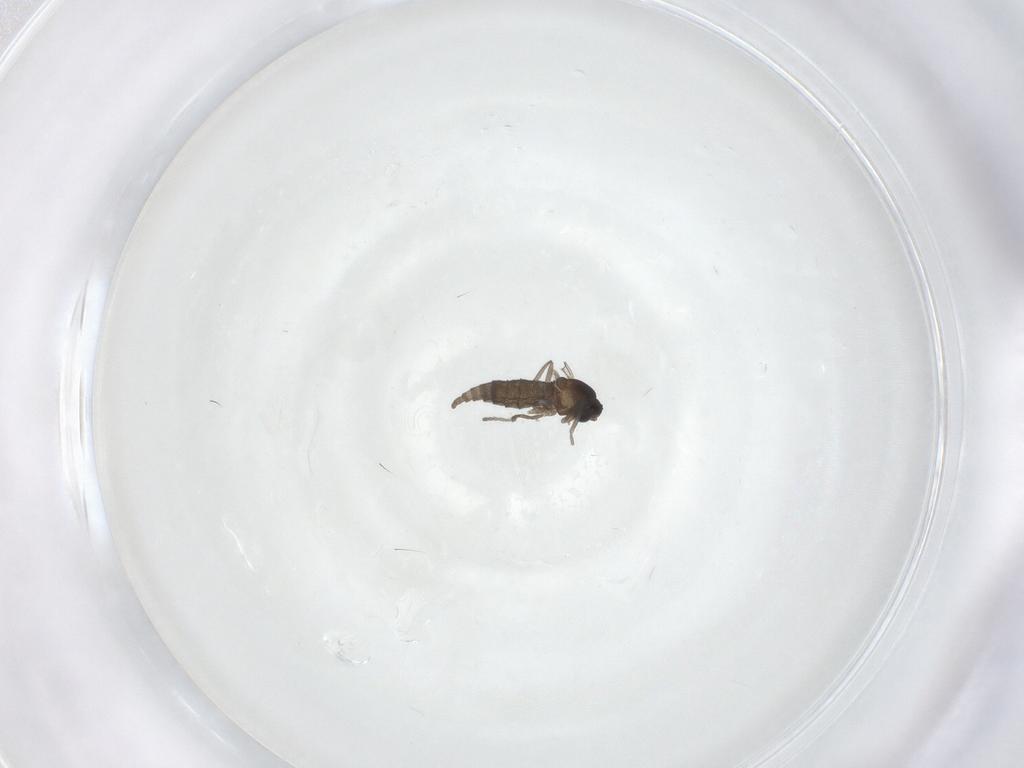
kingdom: Animalia
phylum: Arthropoda
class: Insecta
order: Diptera
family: Cecidomyiidae
